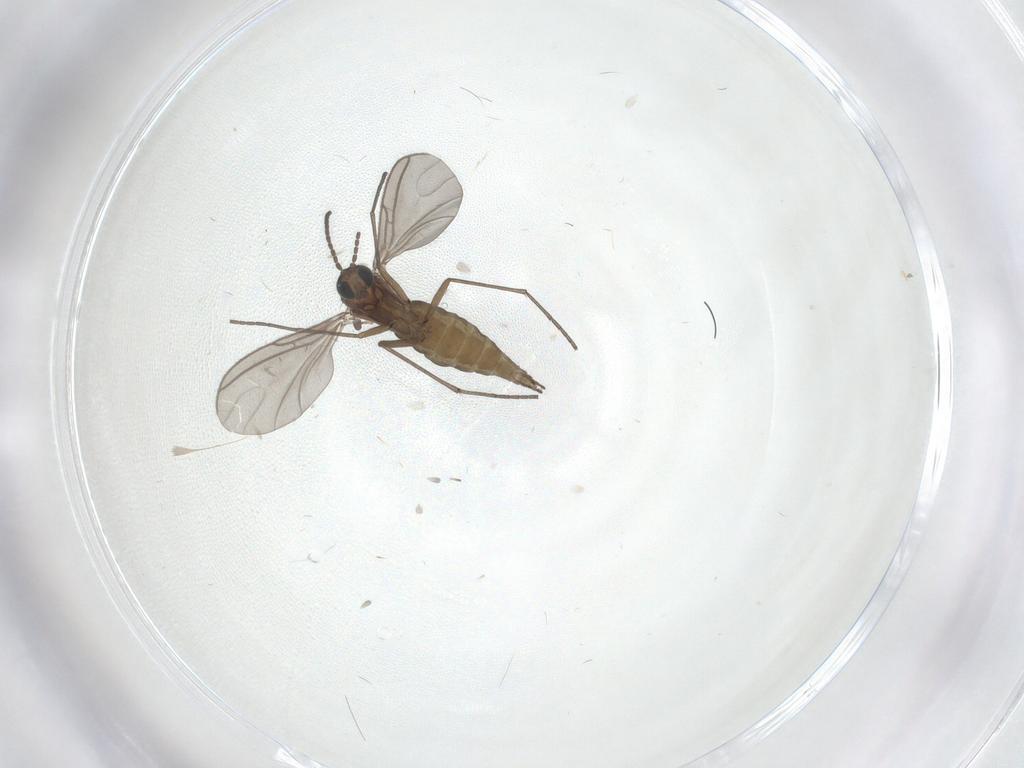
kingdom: Animalia
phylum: Arthropoda
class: Insecta
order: Diptera
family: Sciaridae
